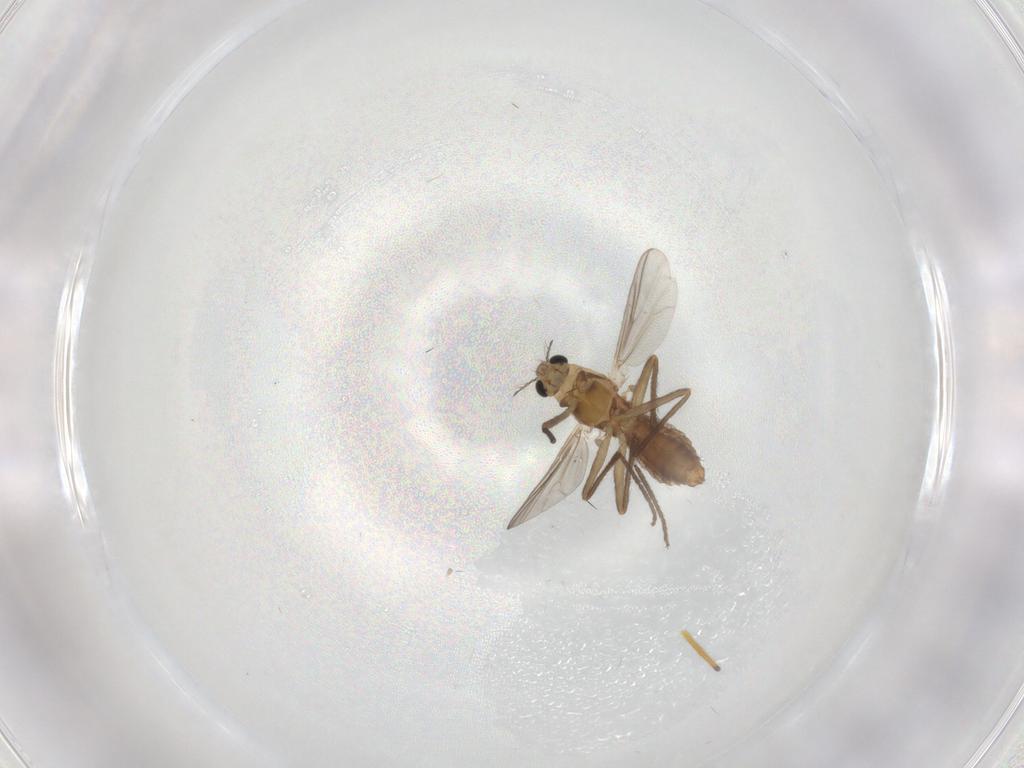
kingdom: Animalia
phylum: Arthropoda
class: Insecta
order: Diptera
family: Chironomidae
